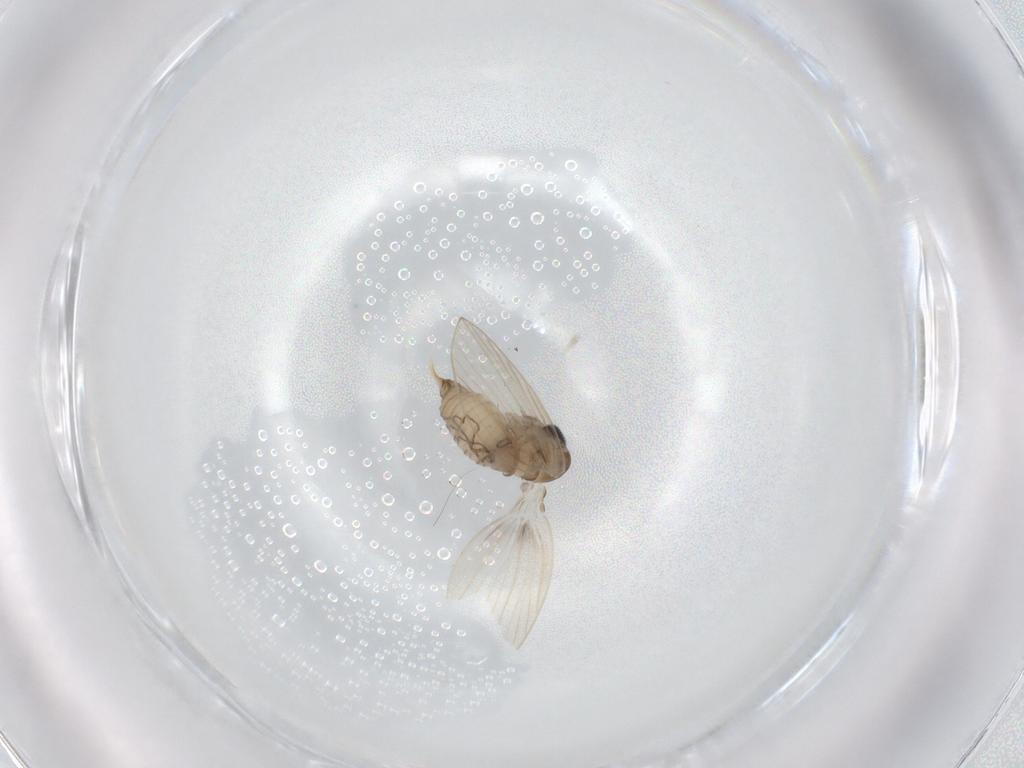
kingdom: Animalia
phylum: Arthropoda
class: Insecta
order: Diptera
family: Psychodidae
